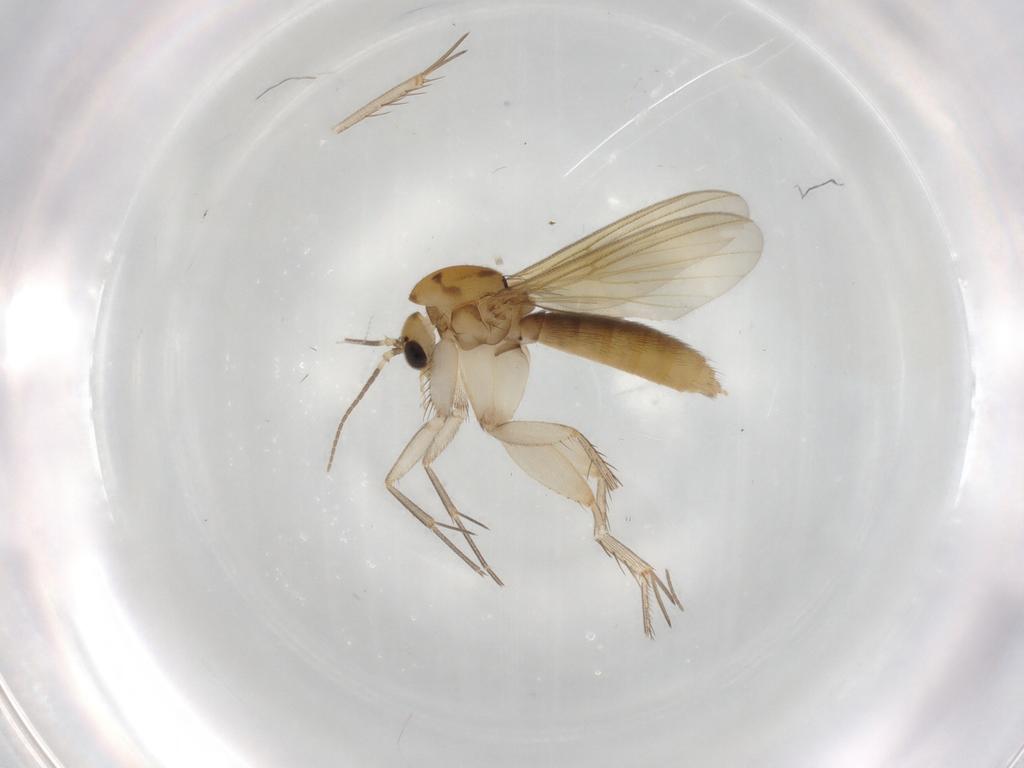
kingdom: Animalia
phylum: Arthropoda
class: Insecta
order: Diptera
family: Mycetophilidae
